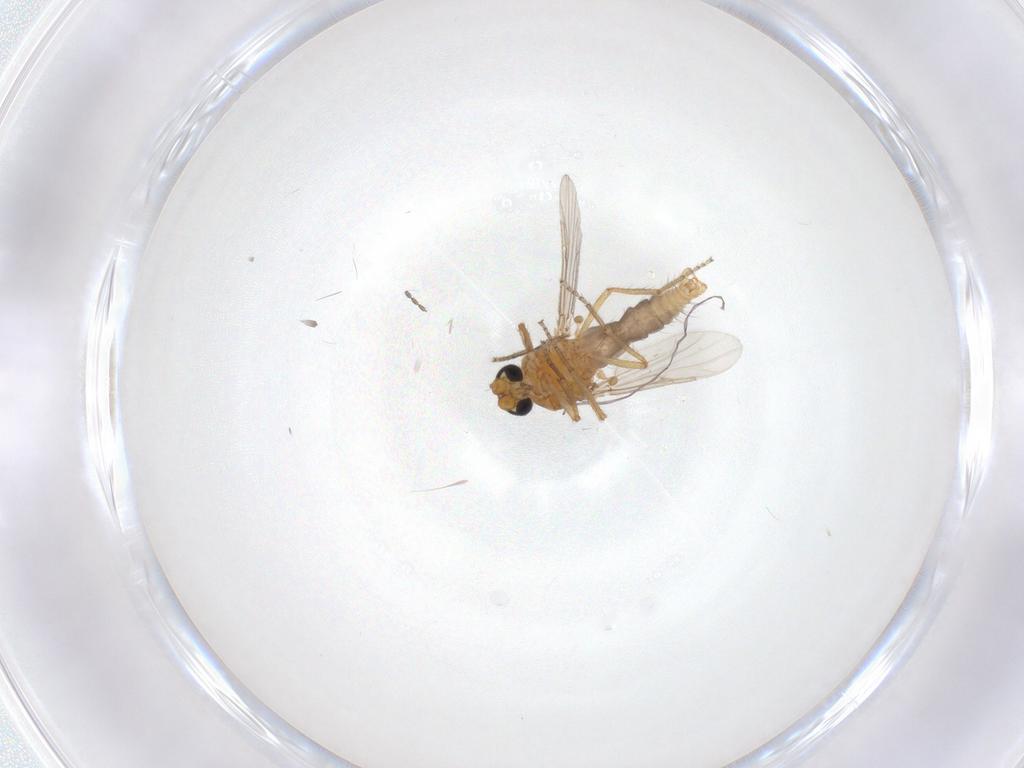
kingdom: Animalia
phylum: Arthropoda
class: Insecta
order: Diptera
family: Ceratopogonidae
